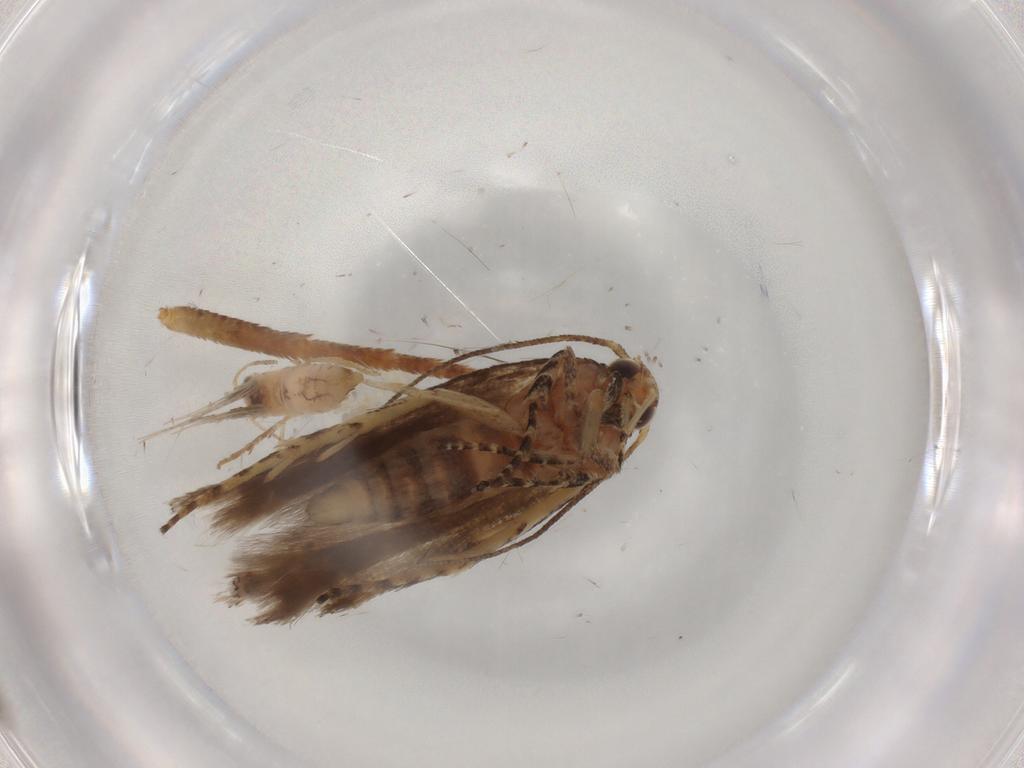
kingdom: Animalia
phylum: Arthropoda
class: Insecta
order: Lepidoptera
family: Gelechiidae
